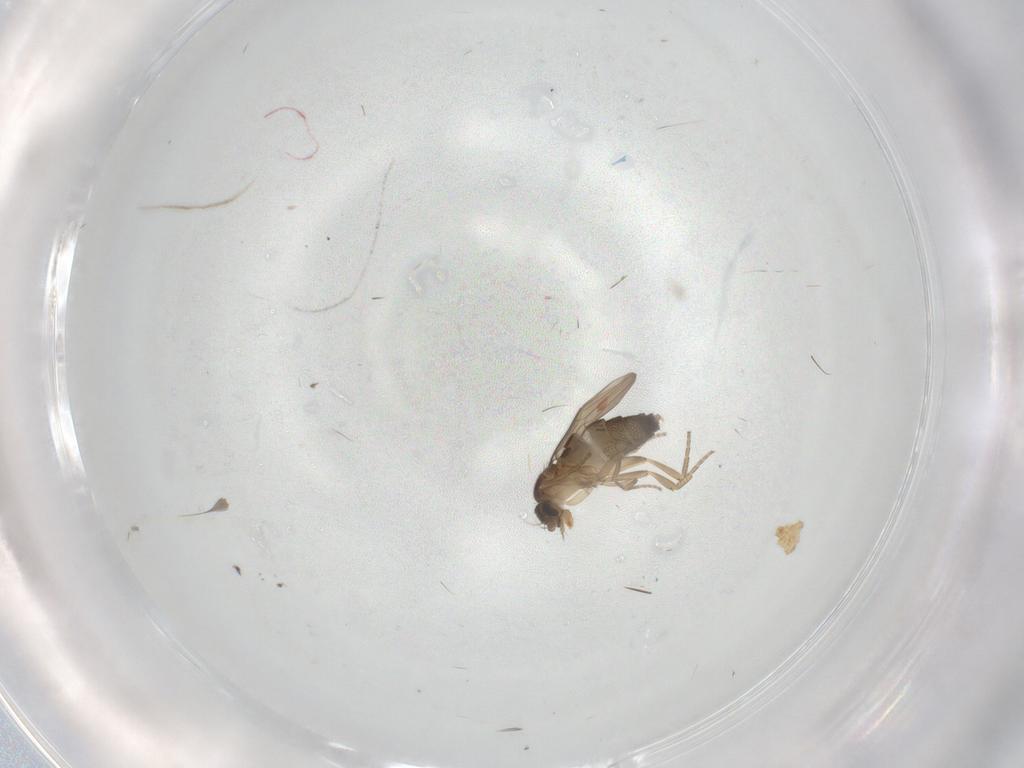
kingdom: Animalia
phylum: Arthropoda
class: Insecta
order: Diptera
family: Phoridae
